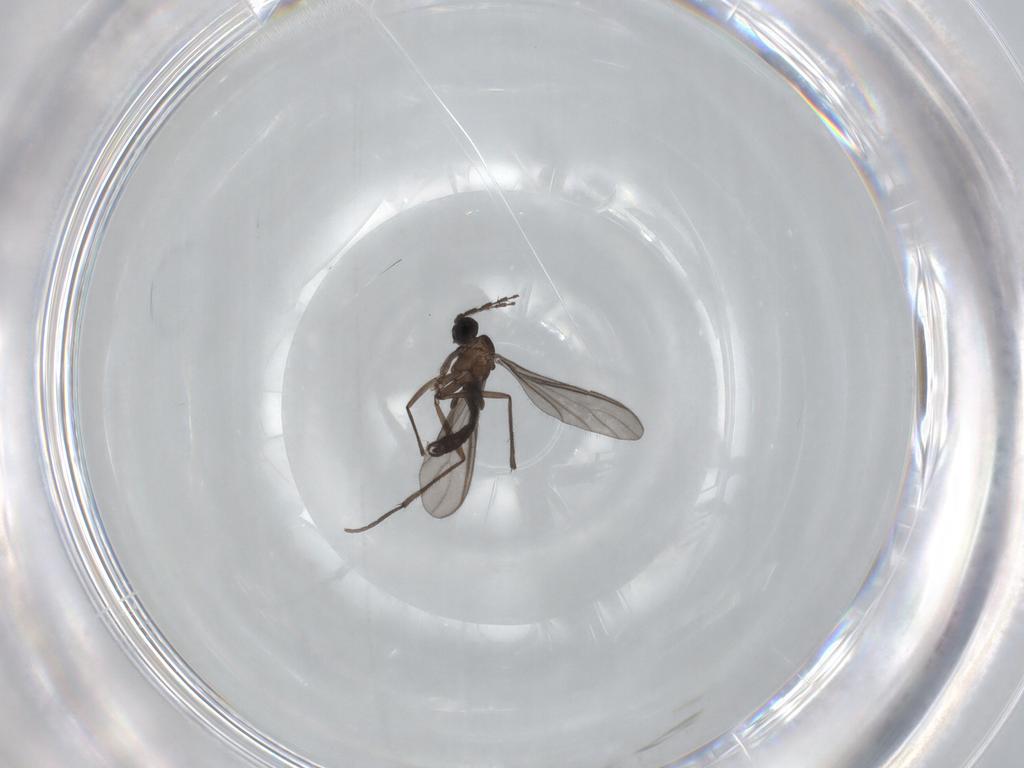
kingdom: Animalia
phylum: Arthropoda
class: Insecta
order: Diptera
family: Sciaridae
